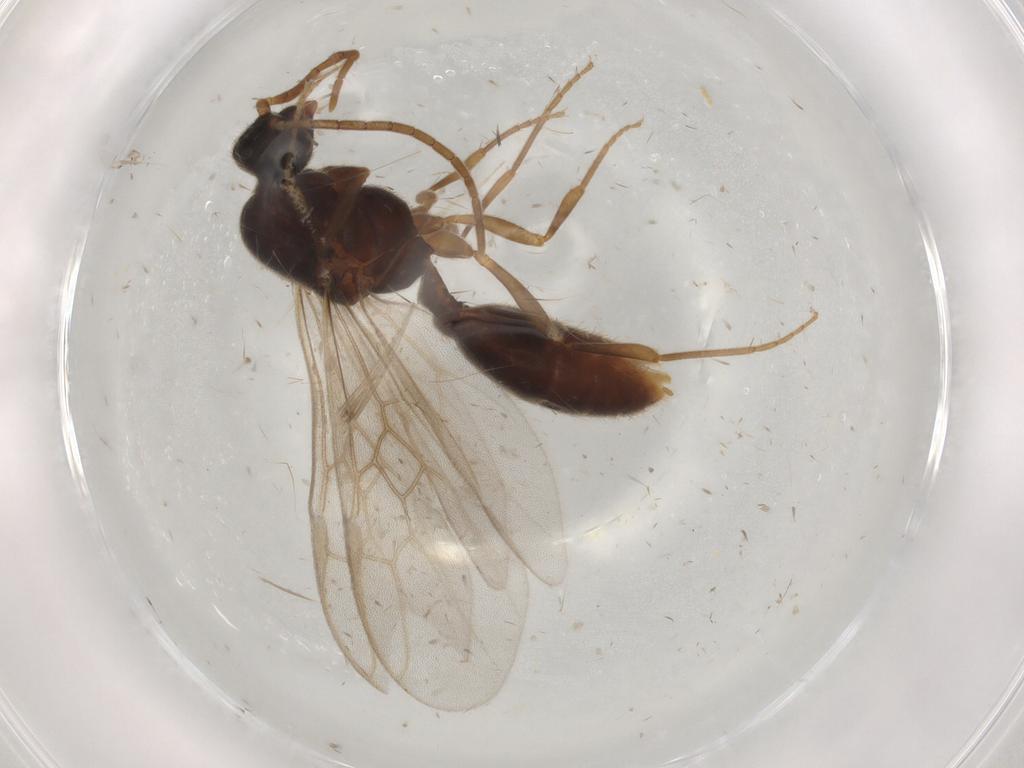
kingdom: Animalia
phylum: Arthropoda
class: Insecta
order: Hymenoptera
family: Formicidae
